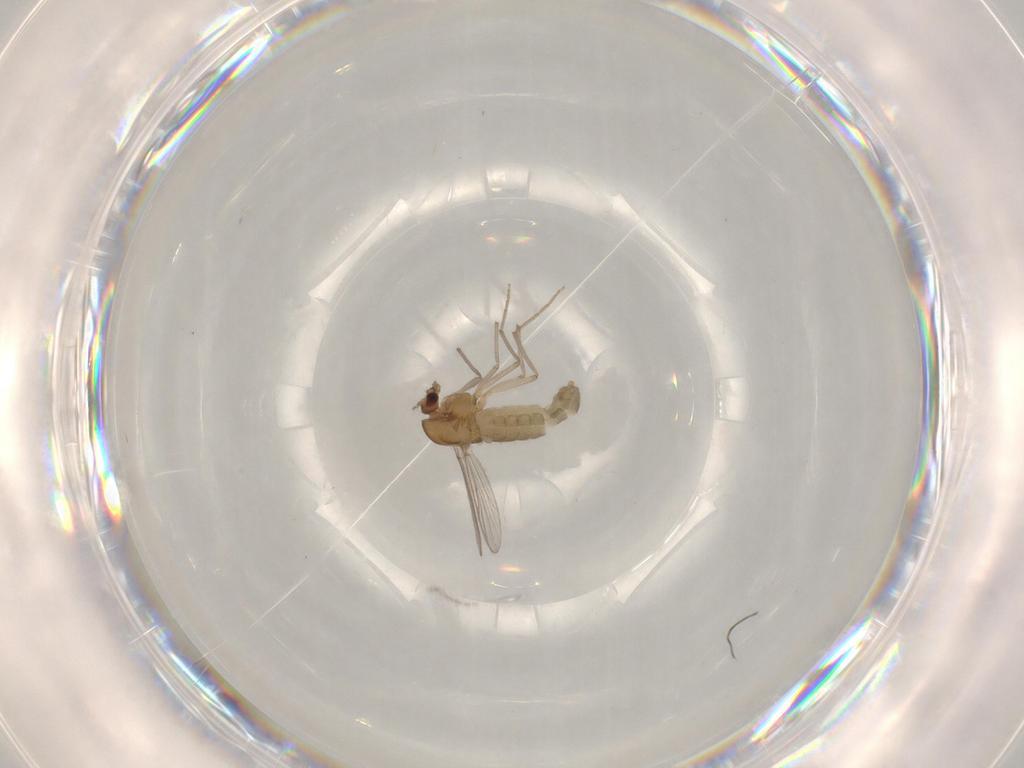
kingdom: Animalia
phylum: Arthropoda
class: Insecta
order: Diptera
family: Chironomidae
